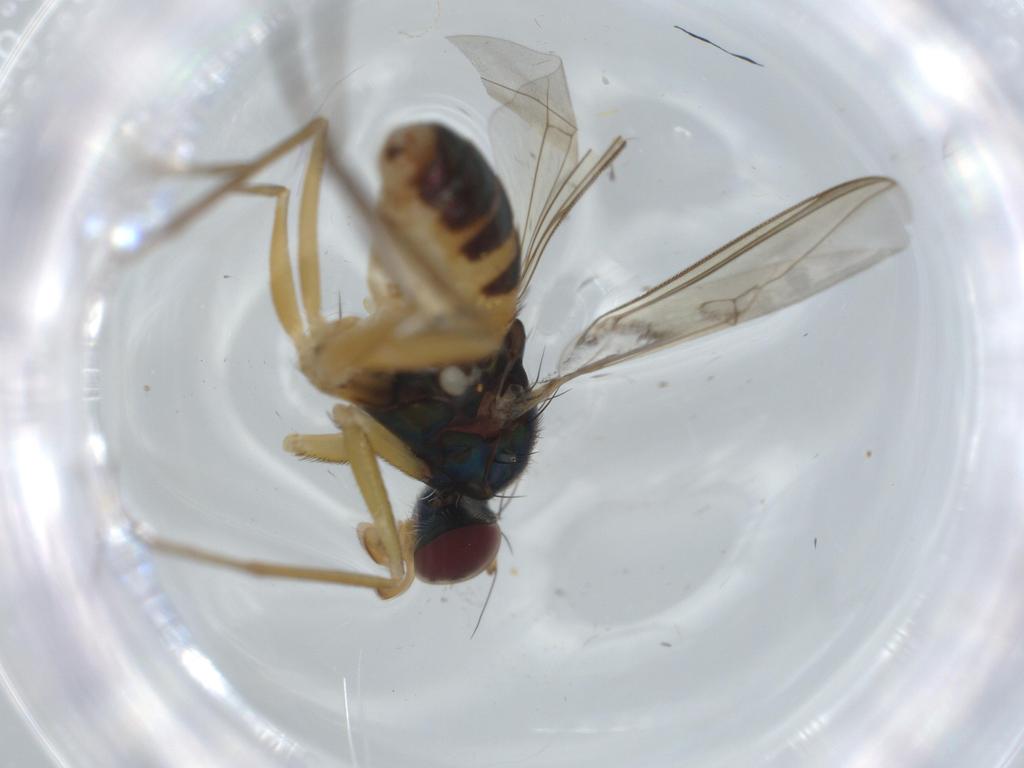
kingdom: Animalia
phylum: Arthropoda
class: Insecta
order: Diptera
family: Dolichopodidae
